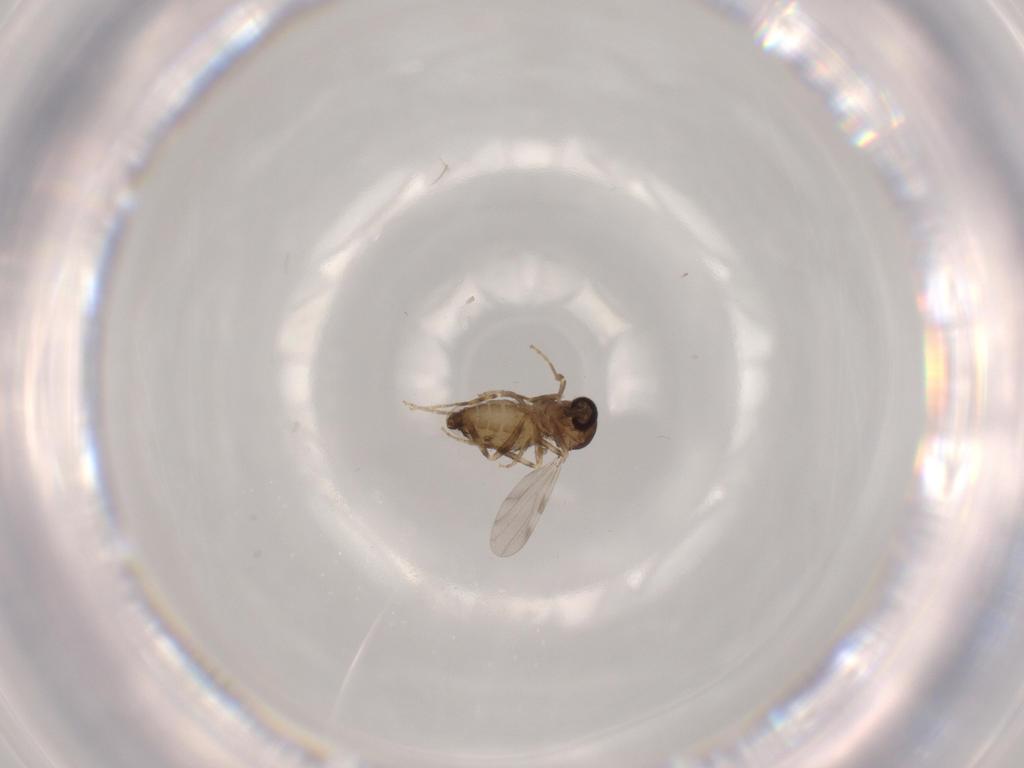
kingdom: Animalia
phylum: Arthropoda
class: Insecta
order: Diptera
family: Ceratopogonidae
